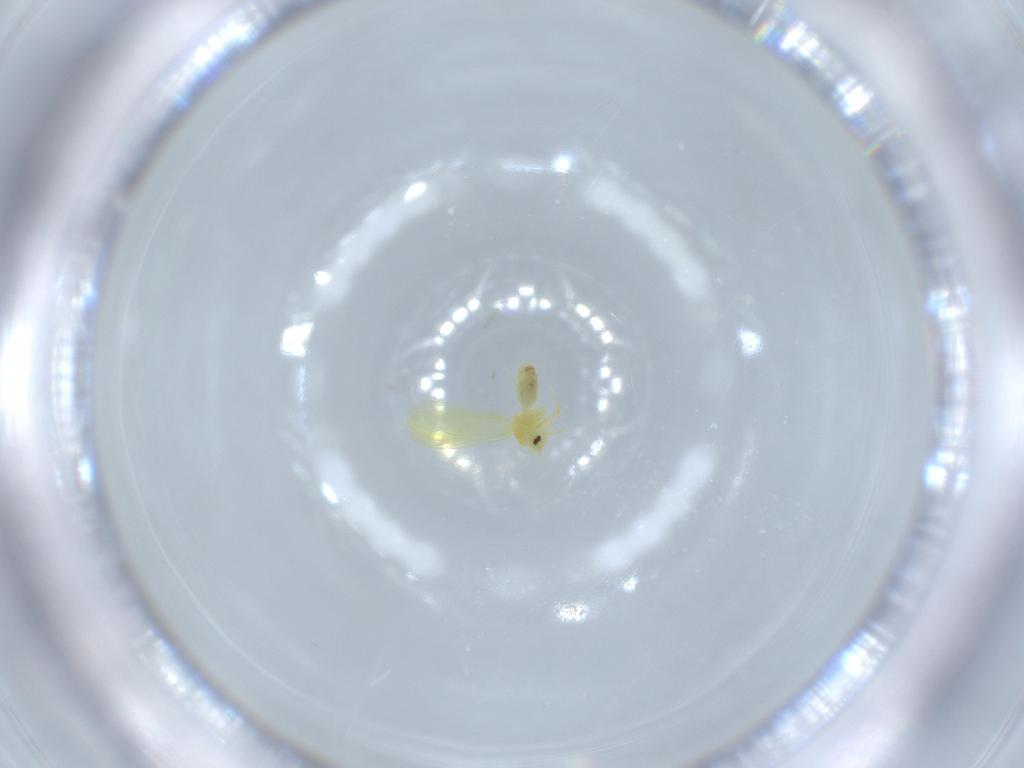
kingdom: Animalia
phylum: Arthropoda
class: Insecta
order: Hemiptera
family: Aleyrodidae
